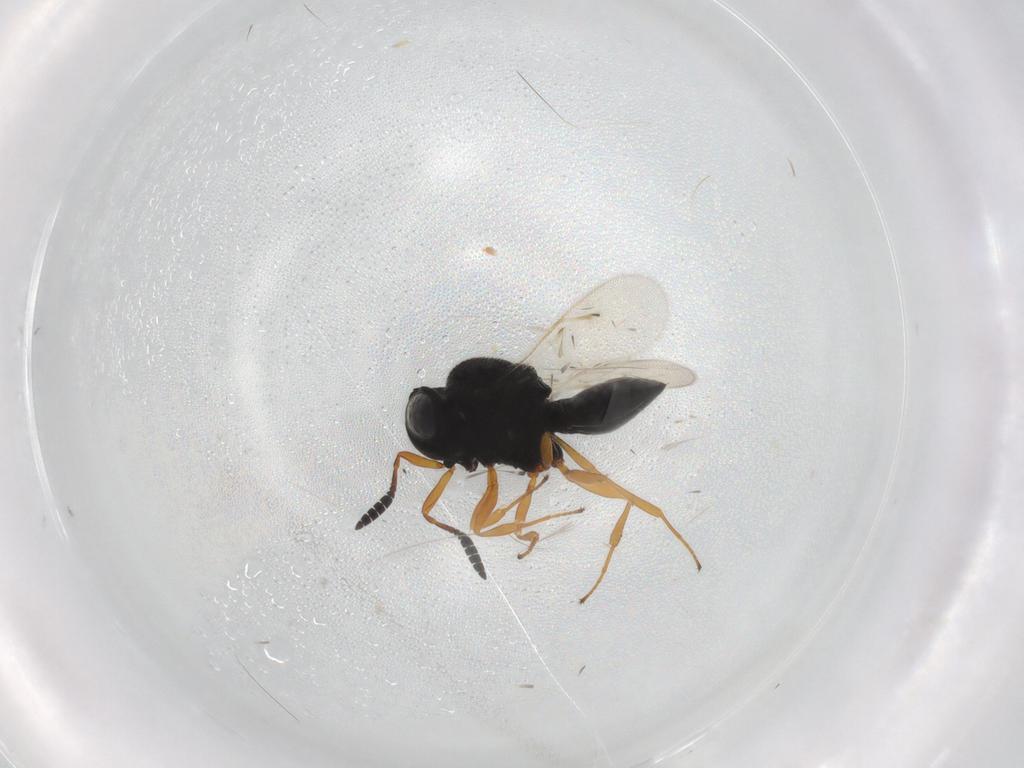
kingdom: Animalia
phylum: Arthropoda
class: Insecta
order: Hymenoptera
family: Scelionidae
